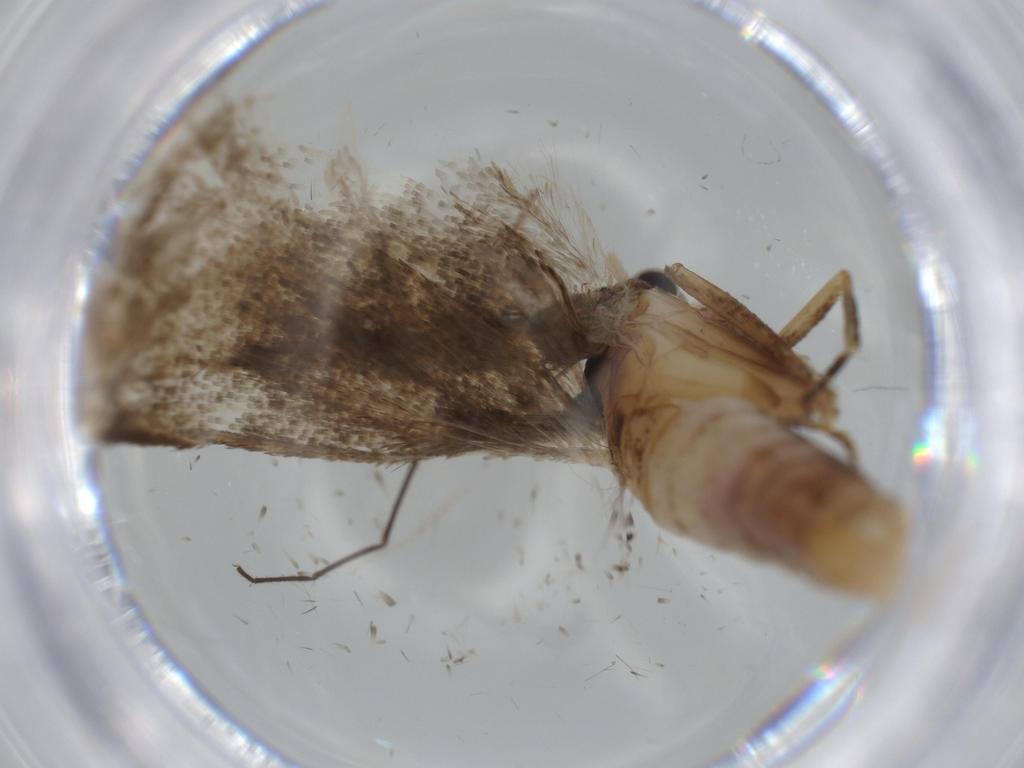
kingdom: Animalia
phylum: Arthropoda
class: Insecta
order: Lepidoptera
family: Gelechiidae
